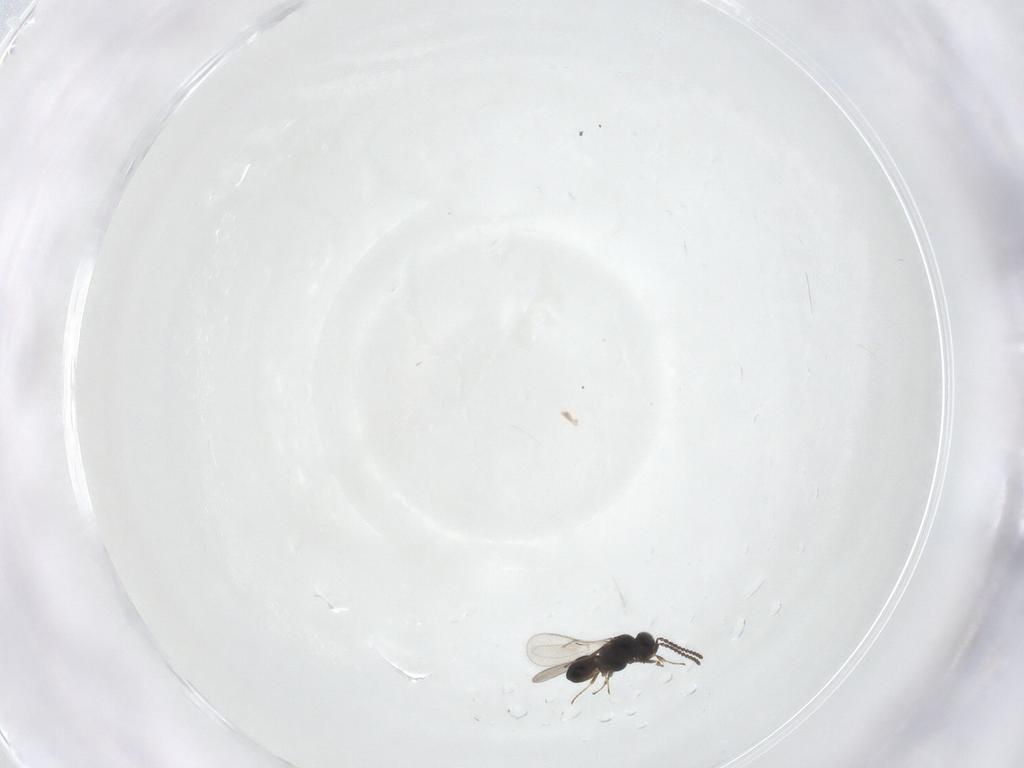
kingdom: Animalia
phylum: Arthropoda
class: Insecta
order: Hymenoptera
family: Scelionidae
